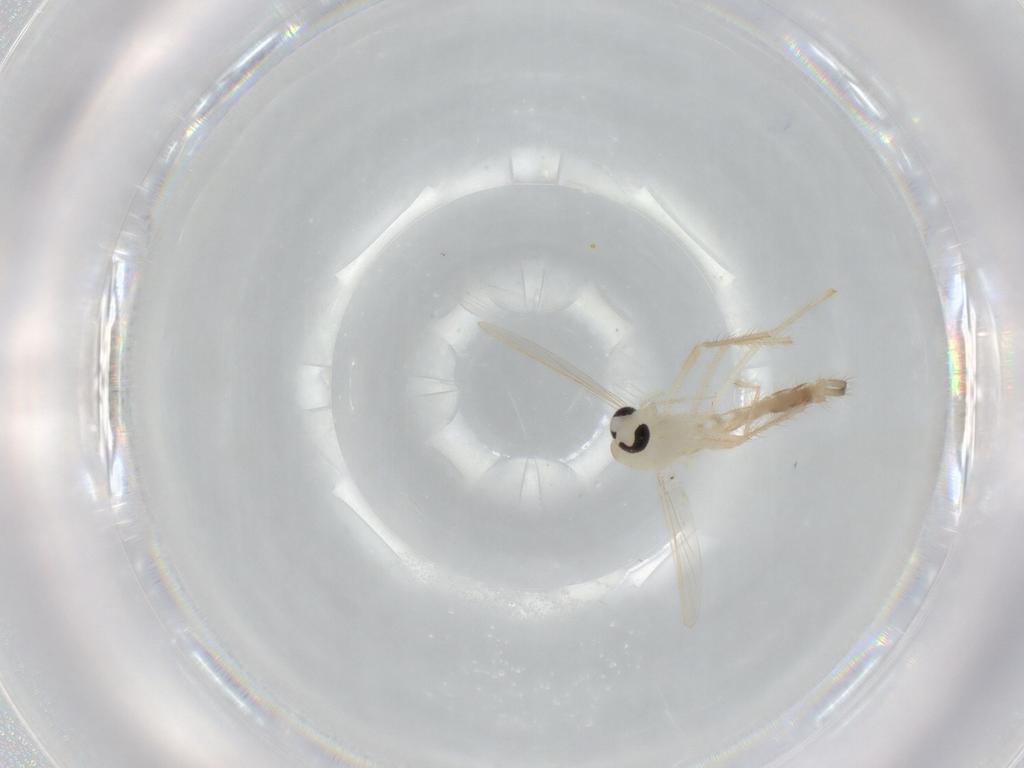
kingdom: Animalia
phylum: Arthropoda
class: Insecta
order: Diptera
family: Chironomidae
